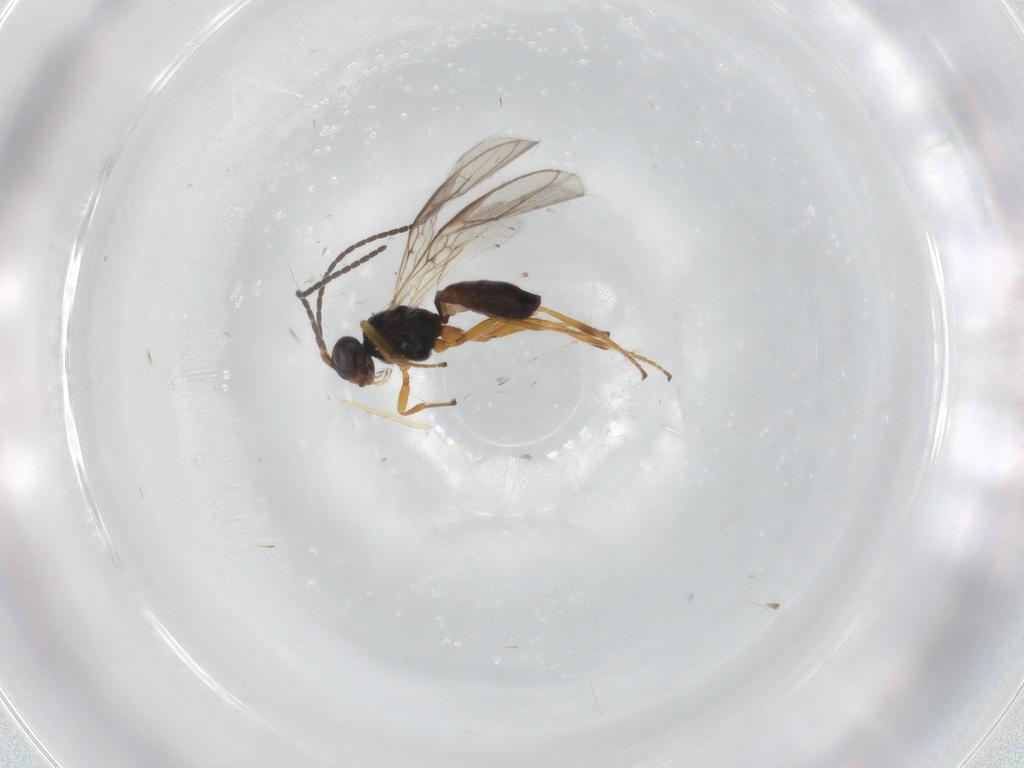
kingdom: Animalia
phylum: Arthropoda
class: Insecta
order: Hymenoptera
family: Braconidae
